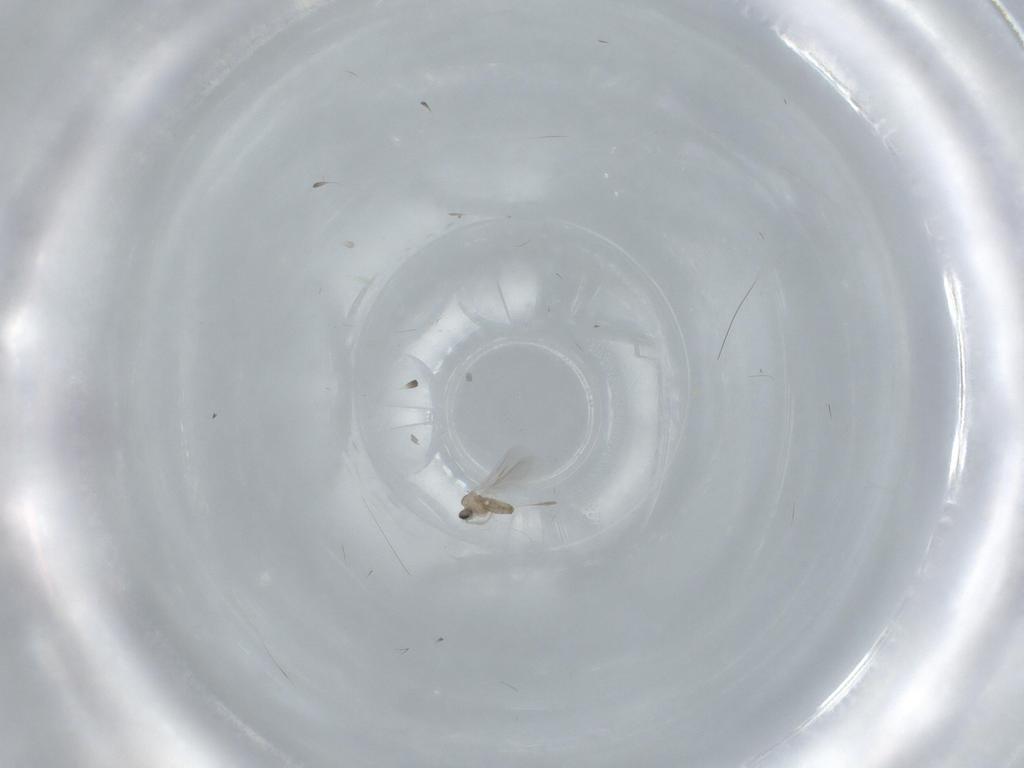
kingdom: Animalia
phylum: Arthropoda
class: Insecta
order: Diptera
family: Cecidomyiidae
